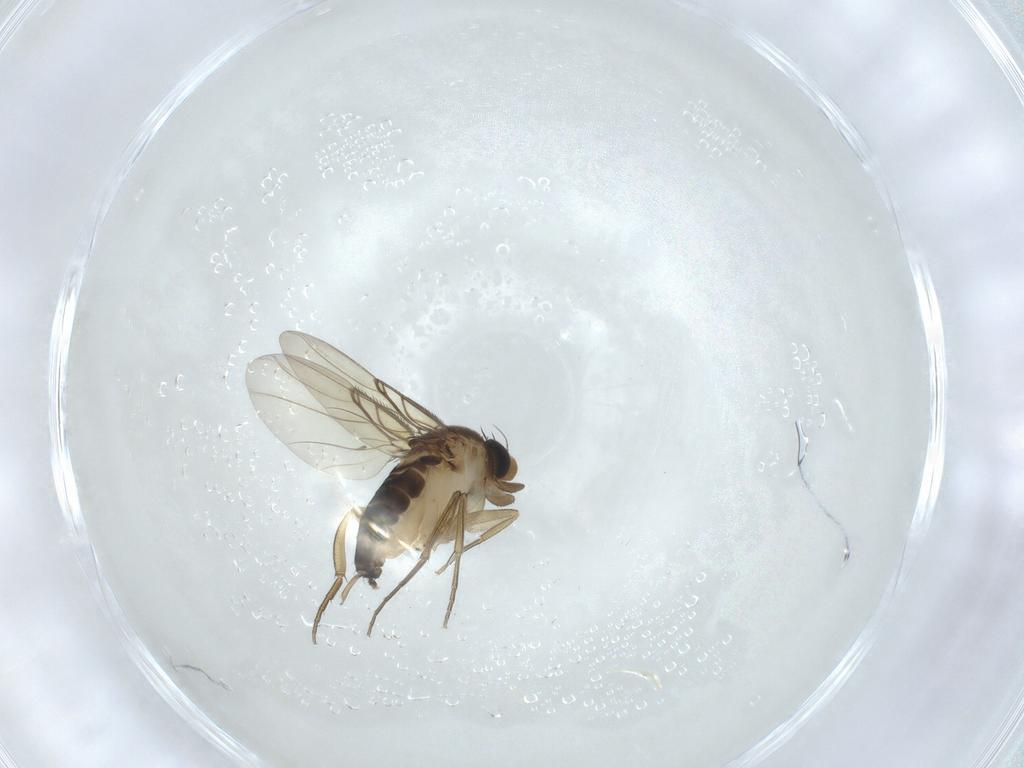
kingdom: Animalia
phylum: Arthropoda
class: Insecta
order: Diptera
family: Phoridae
